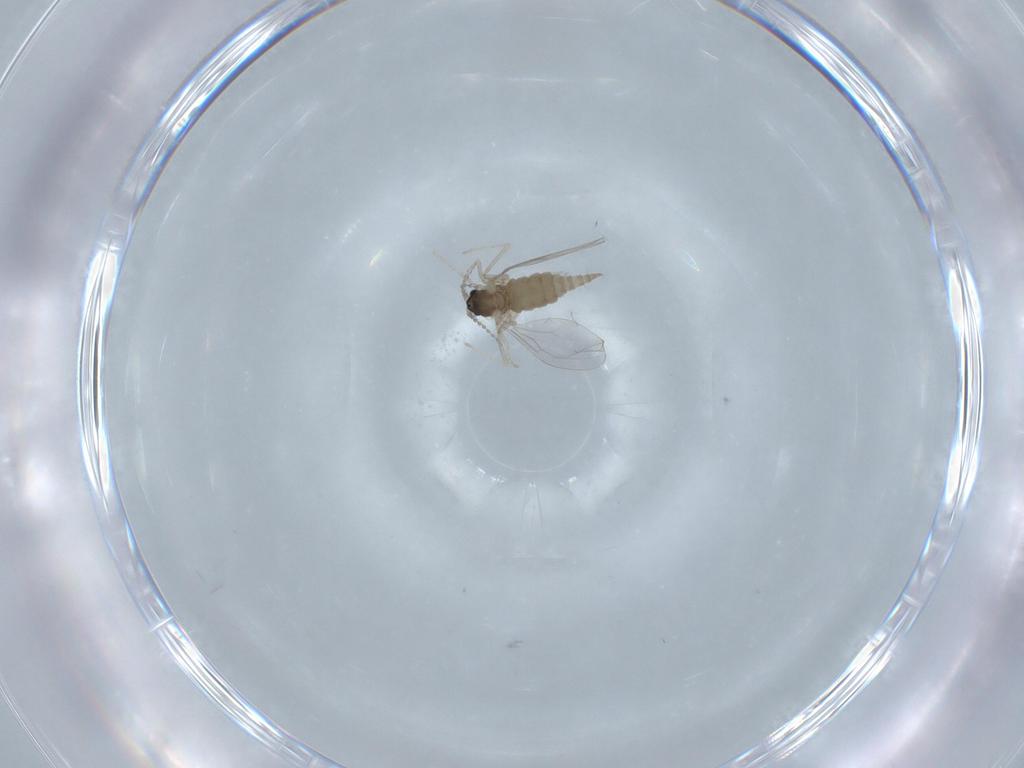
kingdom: Animalia
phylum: Arthropoda
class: Insecta
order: Diptera
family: Cecidomyiidae
